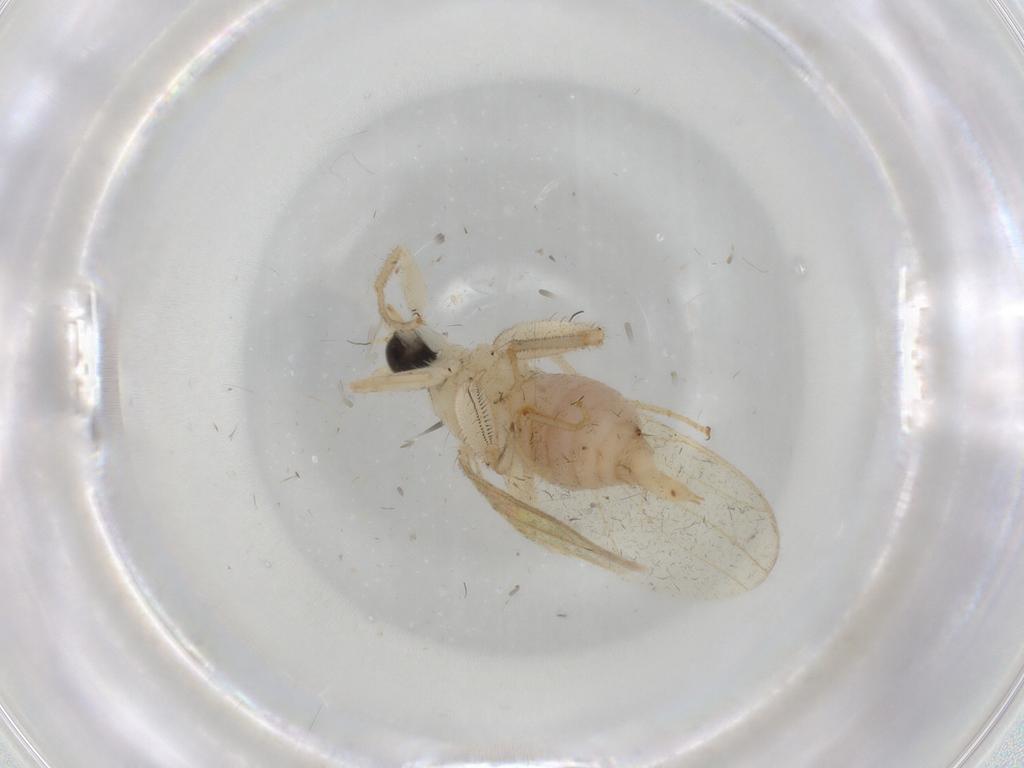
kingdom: Animalia
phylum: Arthropoda
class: Insecta
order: Diptera
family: Hybotidae
